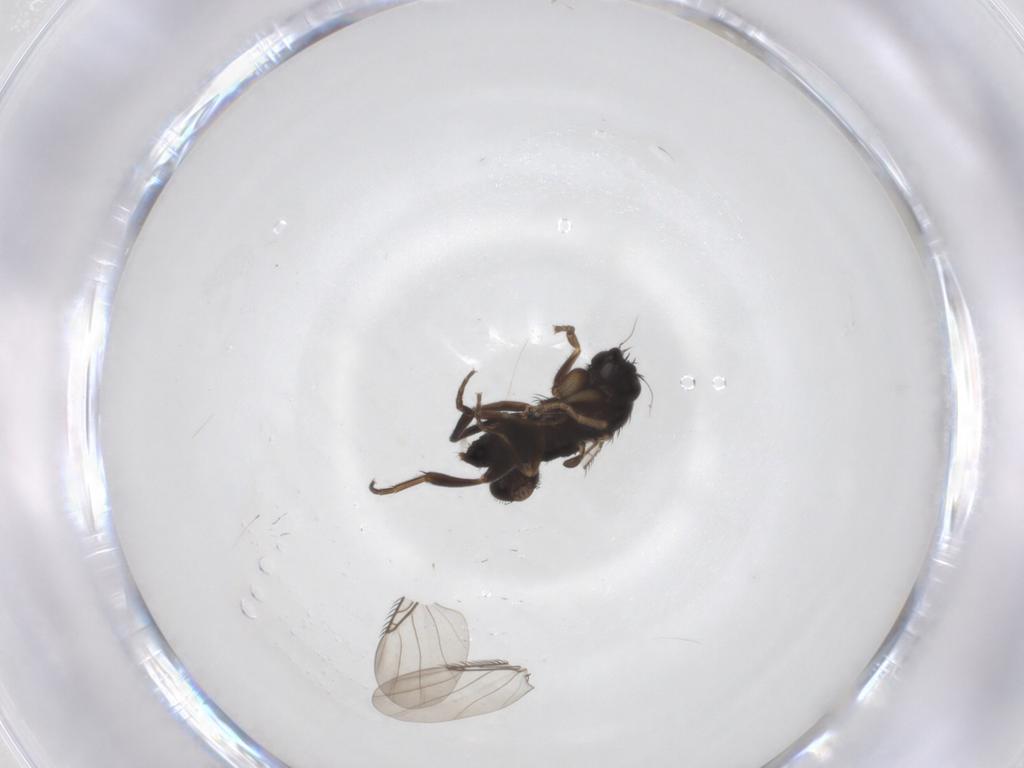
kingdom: Animalia
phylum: Arthropoda
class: Insecta
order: Diptera
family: Phoridae
